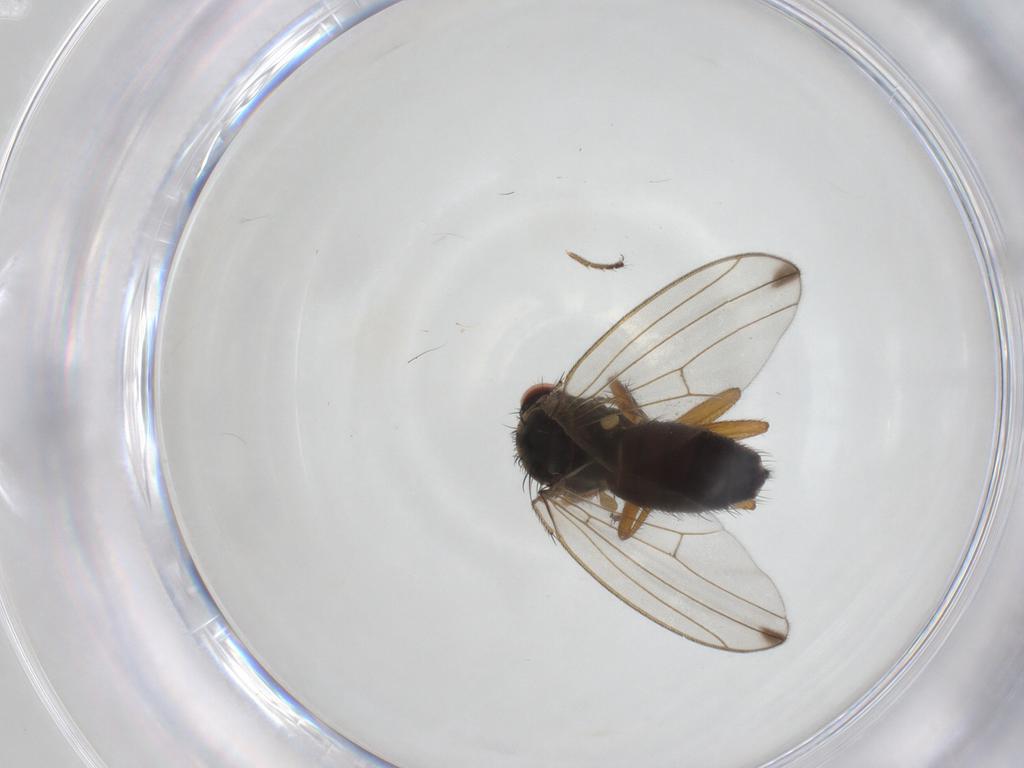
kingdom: Animalia
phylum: Arthropoda
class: Insecta
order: Diptera
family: Drosophilidae
